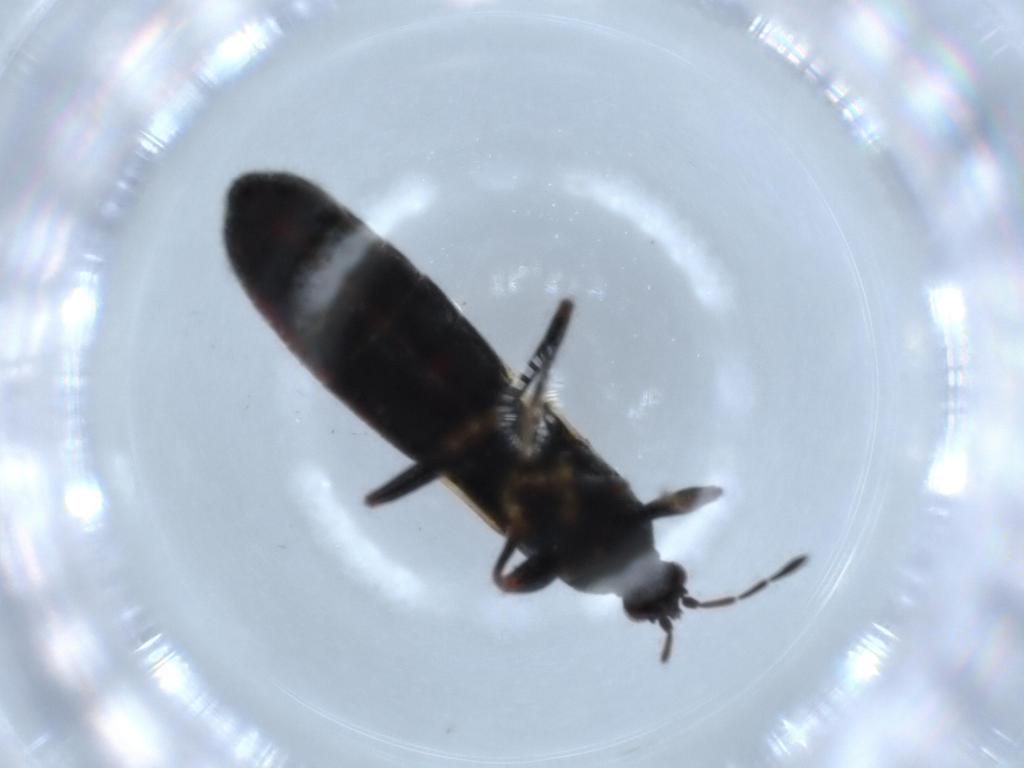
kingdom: Animalia
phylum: Arthropoda
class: Insecta
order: Hemiptera
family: Blissidae
